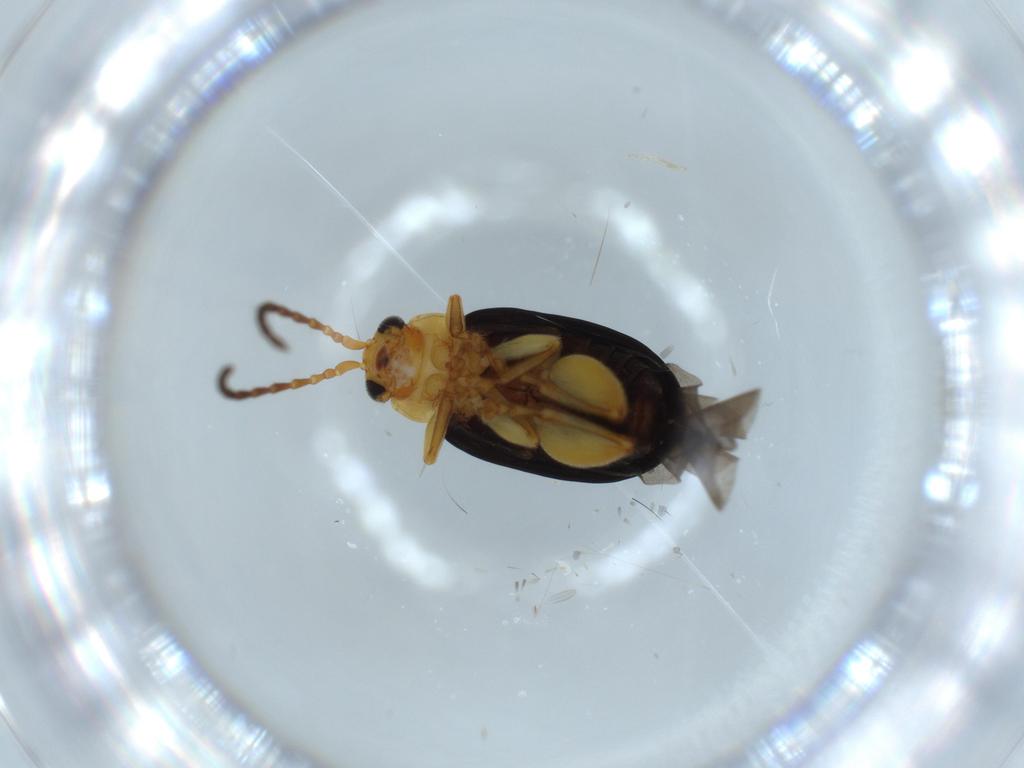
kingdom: Animalia
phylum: Arthropoda
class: Insecta
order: Coleoptera
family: Chrysomelidae
